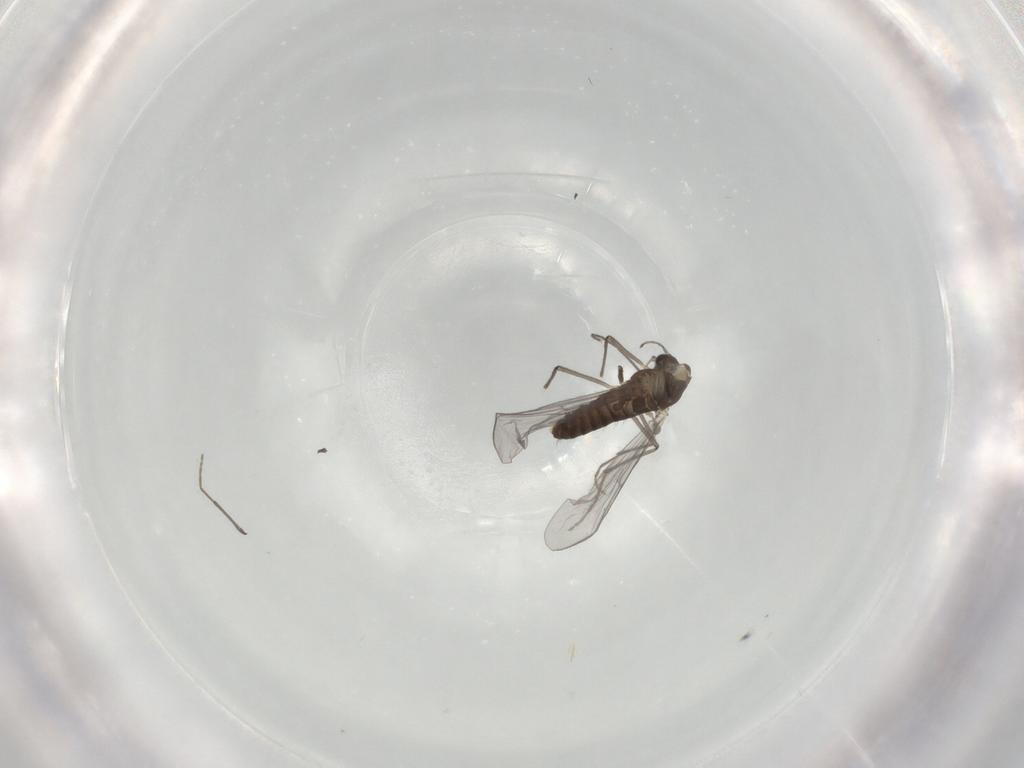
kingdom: Animalia
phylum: Arthropoda
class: Insecta
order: Diptera
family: Chironomidae
